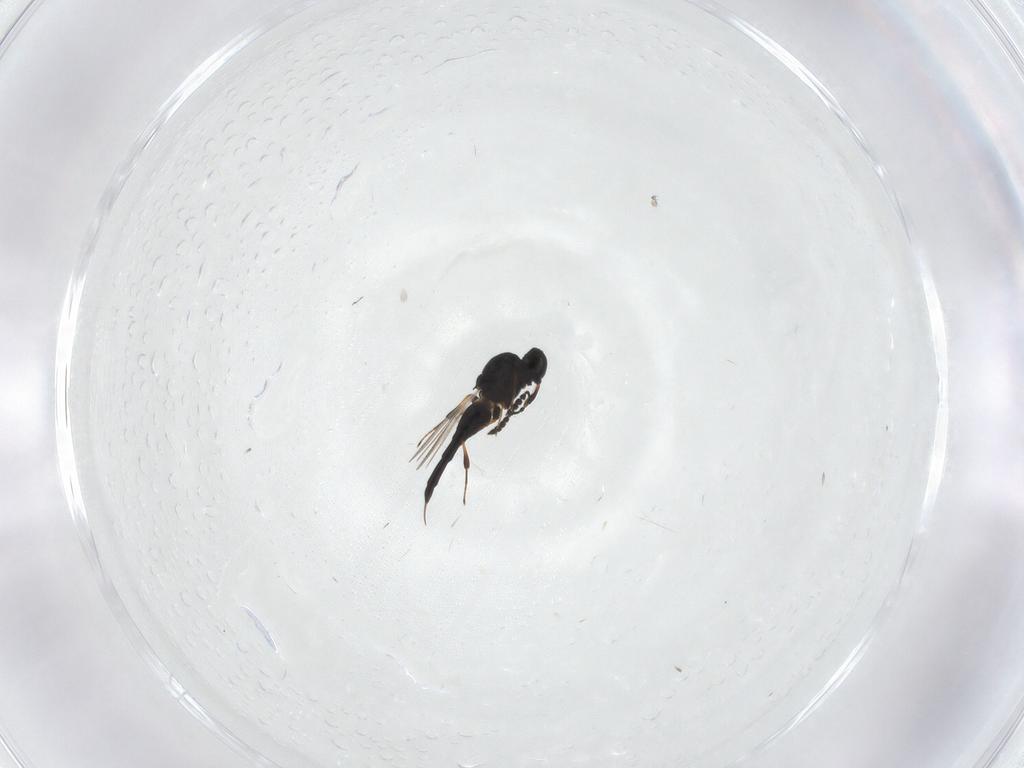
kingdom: Animalia
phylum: Arthropoda
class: Insecta
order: Hymenoptera
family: Platygastridae
